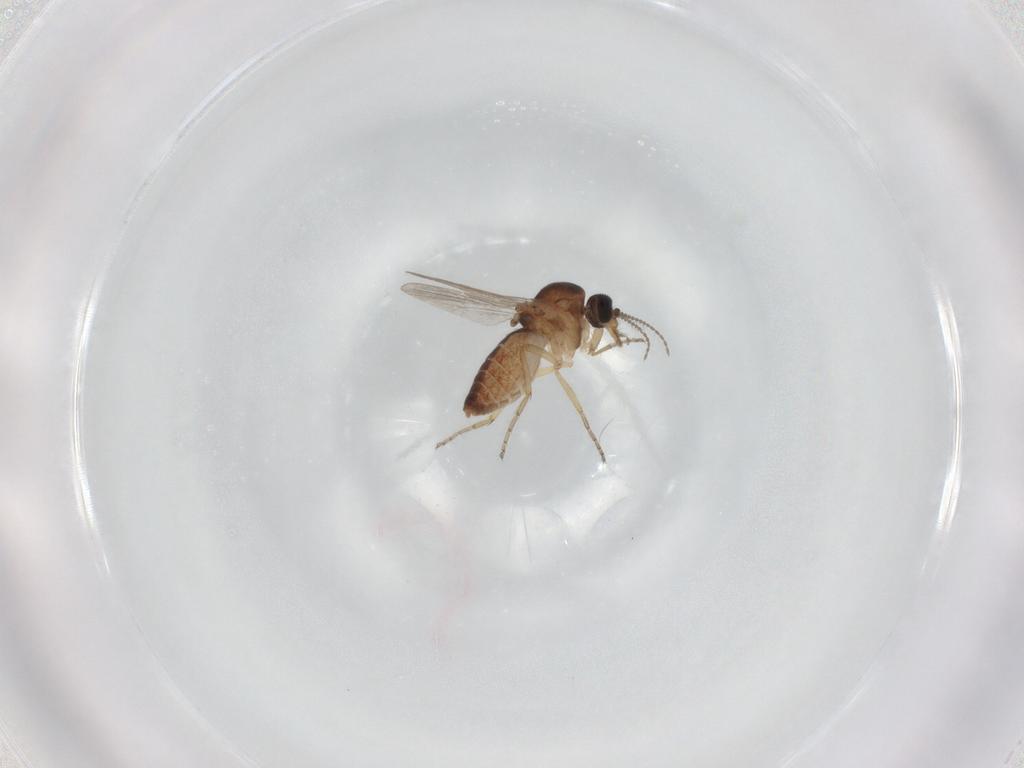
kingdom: Animalia
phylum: Arthropoda
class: Insecta
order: Diptera
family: Ceratopogonidae
